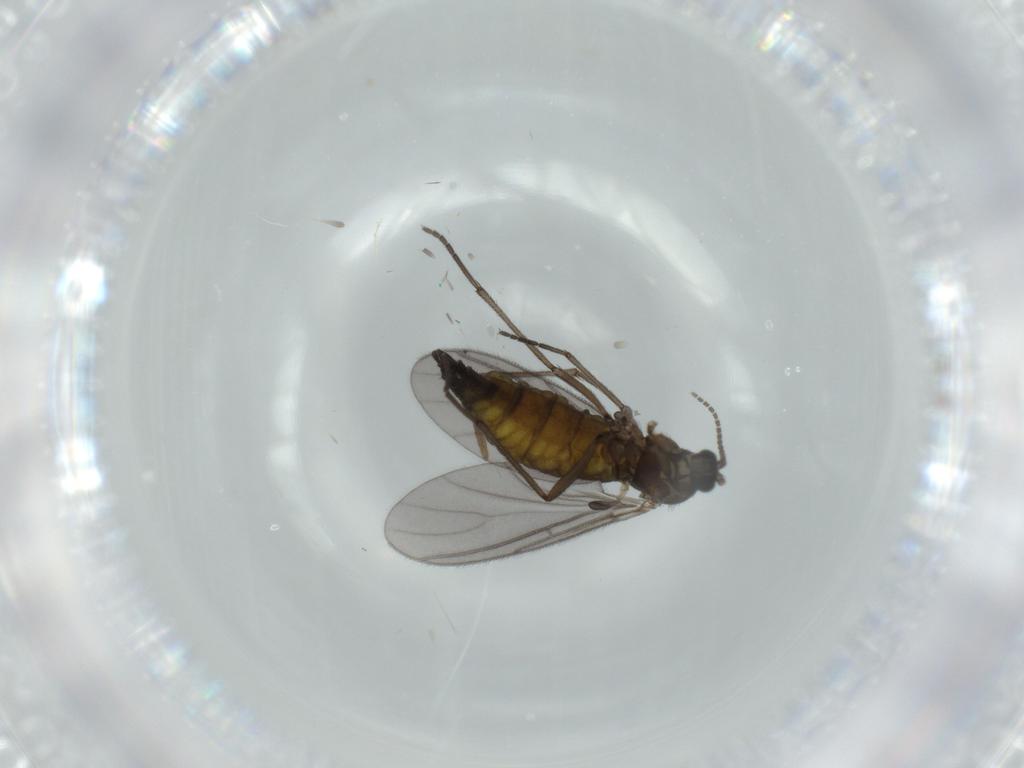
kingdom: Animalia
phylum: Arthropoda
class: Insecta
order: Diptera
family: Sciaridae
